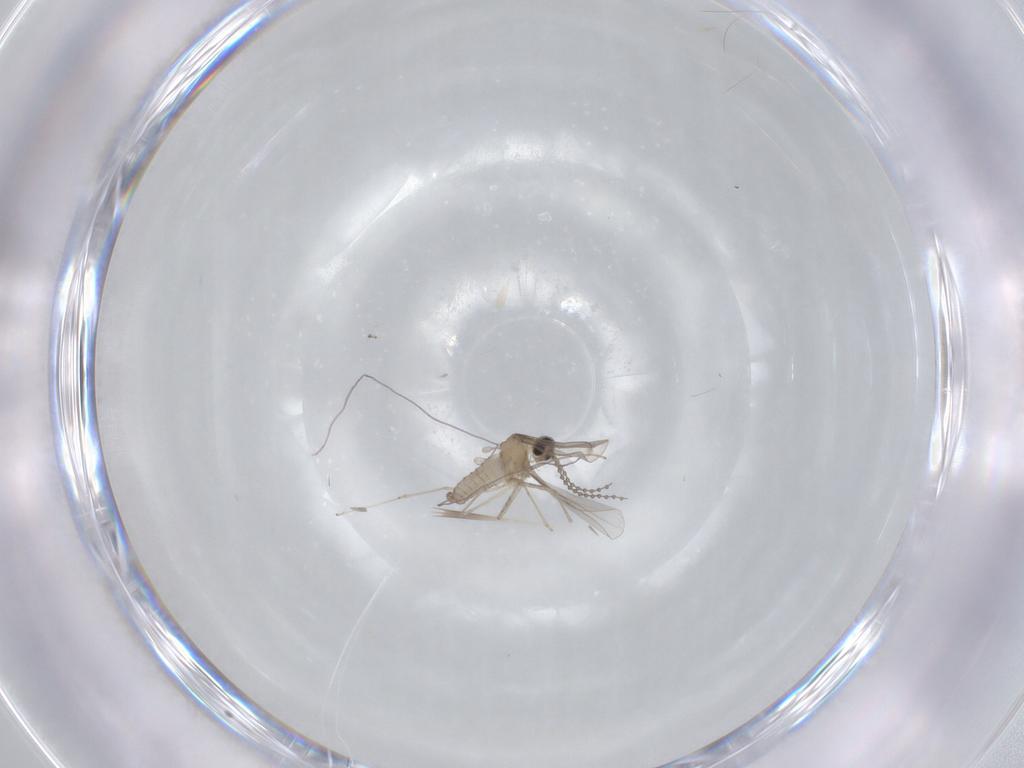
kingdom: Animalia
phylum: Arthropoda
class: Insecta
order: Diptera
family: Cecidomyiidae
